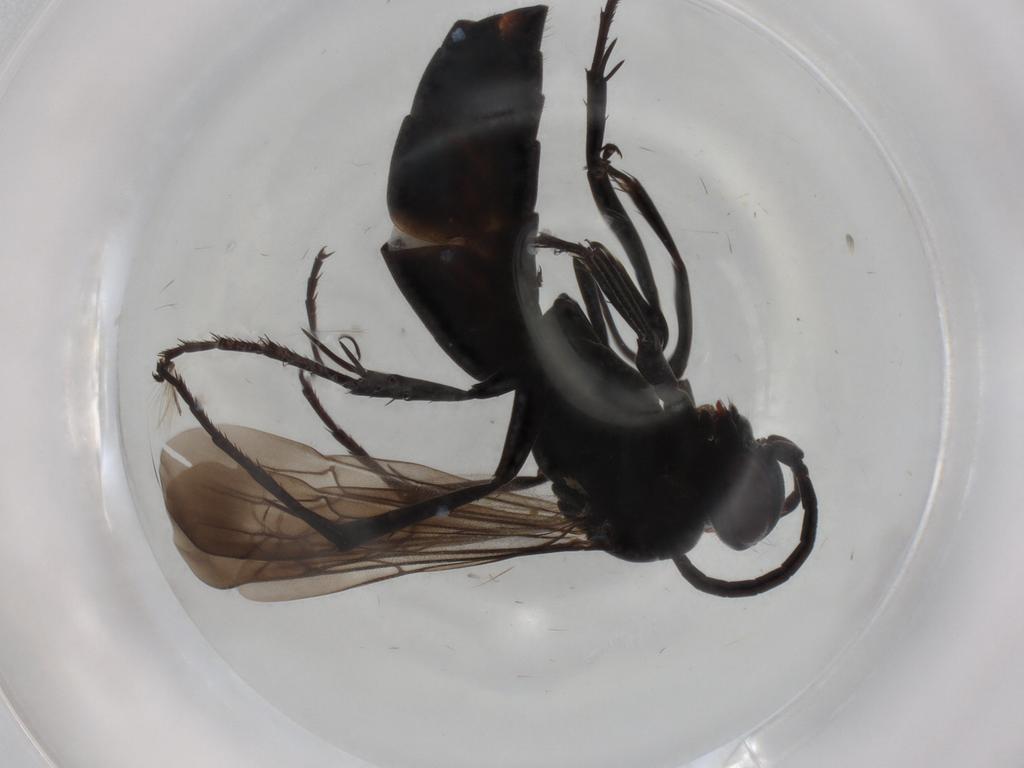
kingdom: Animalia
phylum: Arthropoda
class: Insecta
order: Hymenoptera
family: Pompilidae
